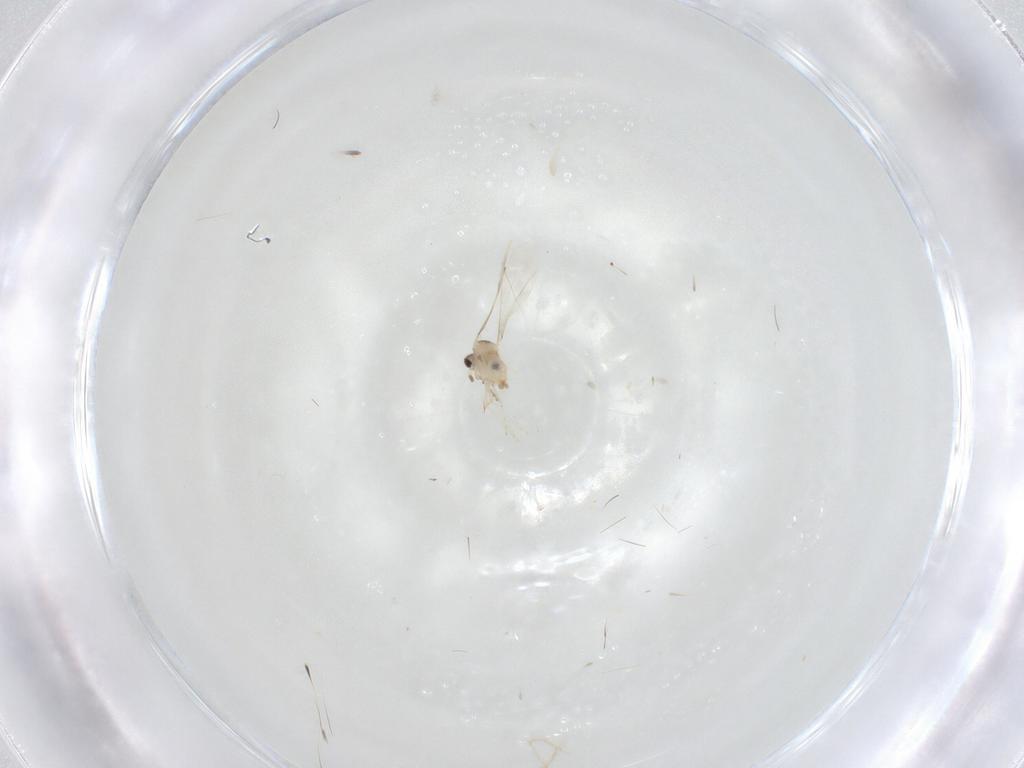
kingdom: Animalia
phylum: Arthropoda
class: Insecta
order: Diptera
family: Cecidomyiidae
